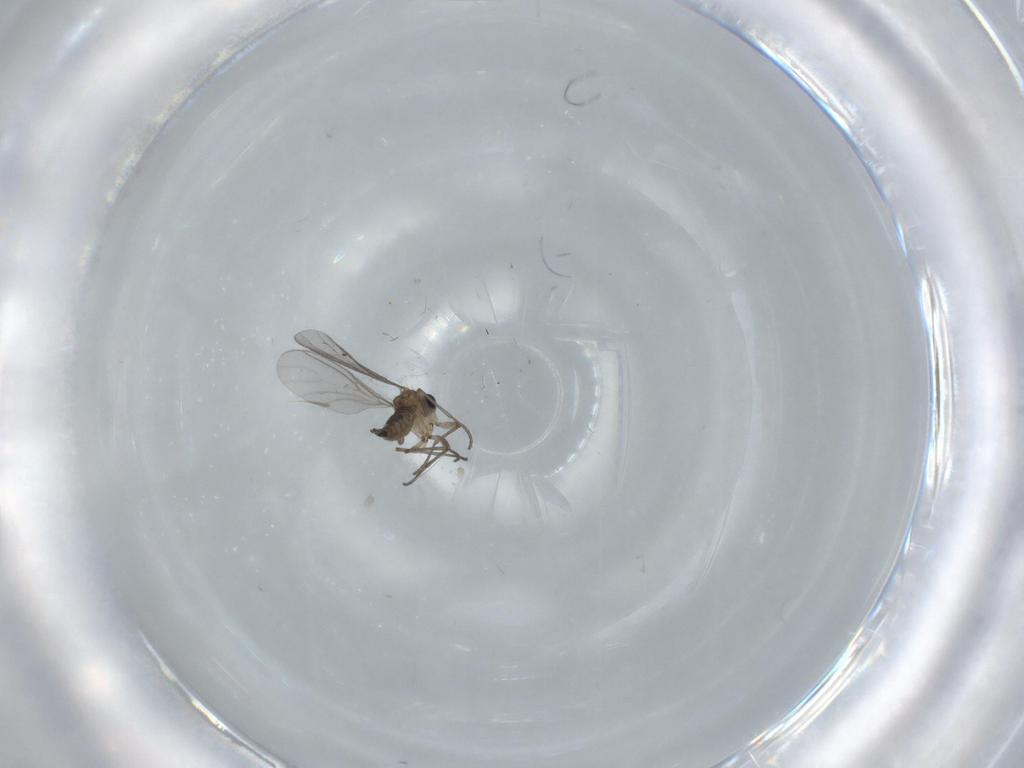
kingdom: Animalia
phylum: Arthropoda
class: Insecta
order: Diptera
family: Sciaridae
